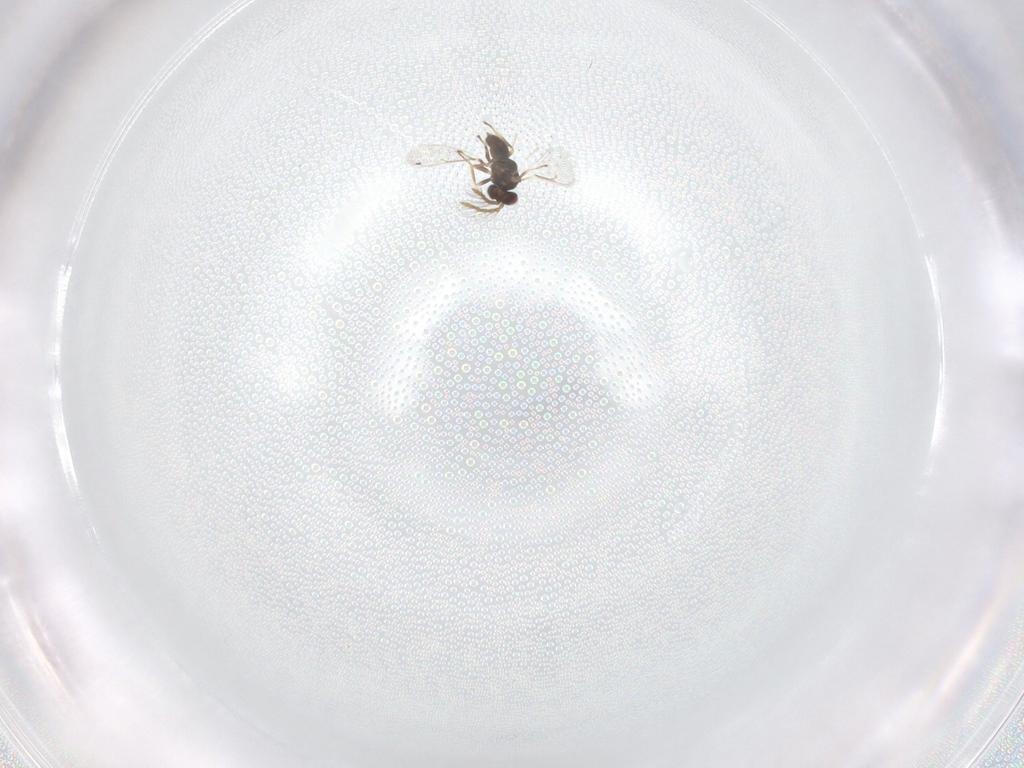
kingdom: Animalia
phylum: Arthropoda
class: Insecta
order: Hymenoptera
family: Eulophidae
